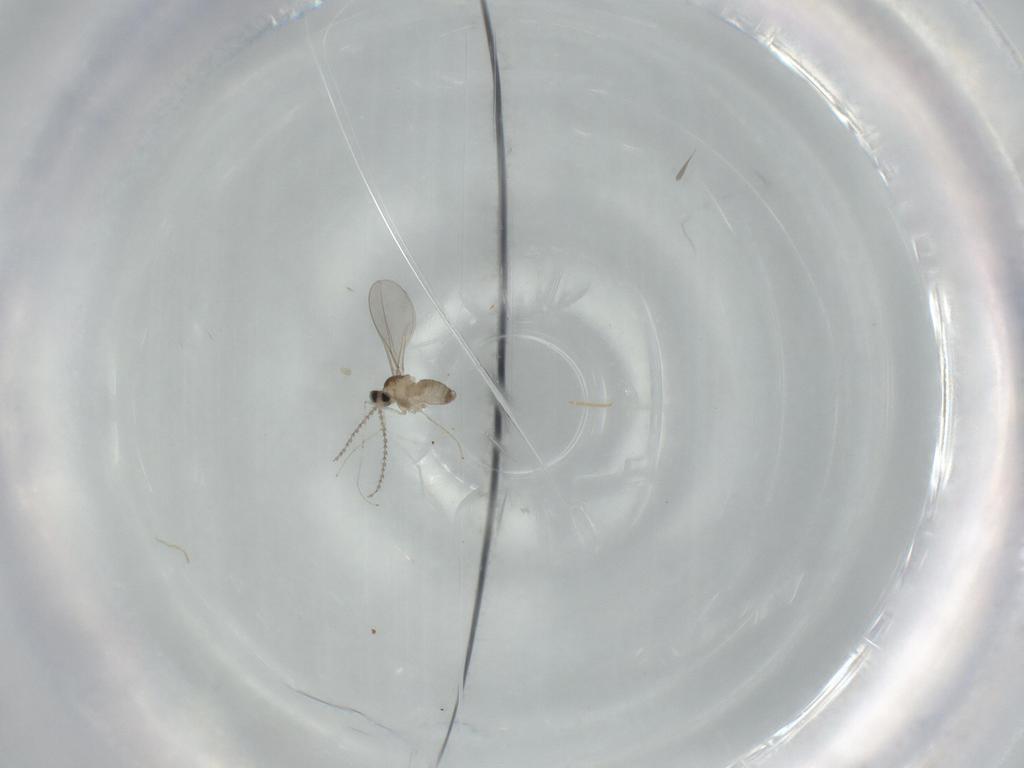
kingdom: Animalia
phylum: Arthropoda
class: Insecta
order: Diptera
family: Cecidomyiidae
